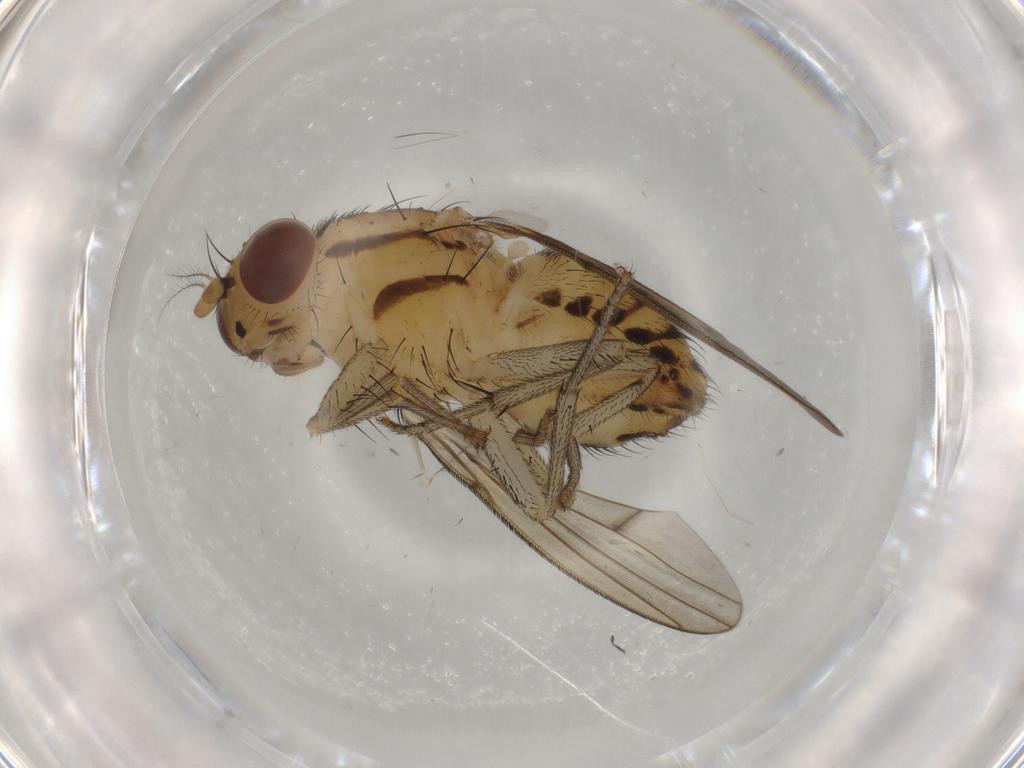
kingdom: Animalia
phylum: Arthropoda
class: Insecta
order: Diptera
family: Lauxaniidae
